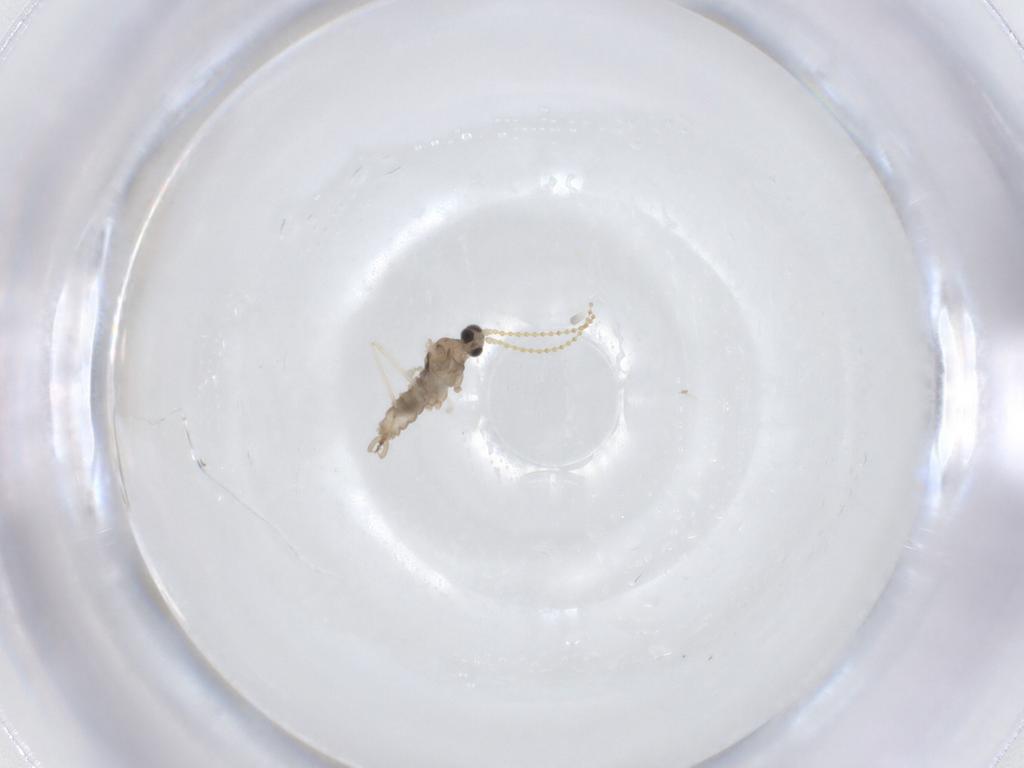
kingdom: Animalia
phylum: Arthropoda
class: Insecta
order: Diptera
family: Cecidomyiidae
